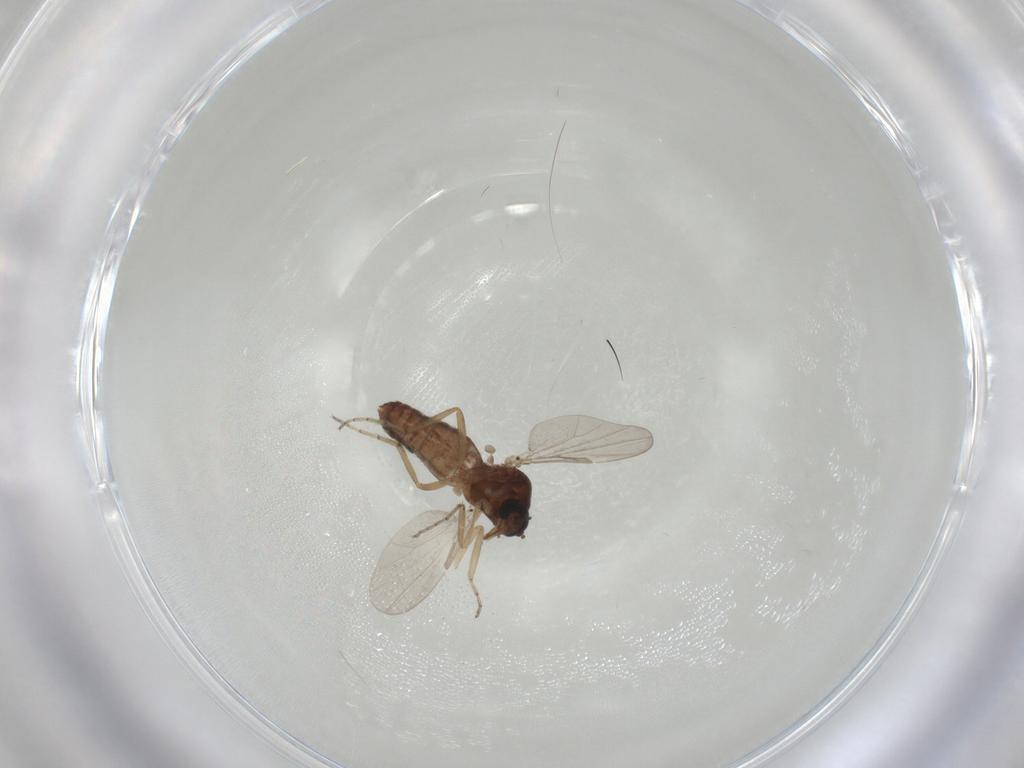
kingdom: Animalia
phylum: Arthropoda
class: Insecta
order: Diptera
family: Ceratopogonidae
